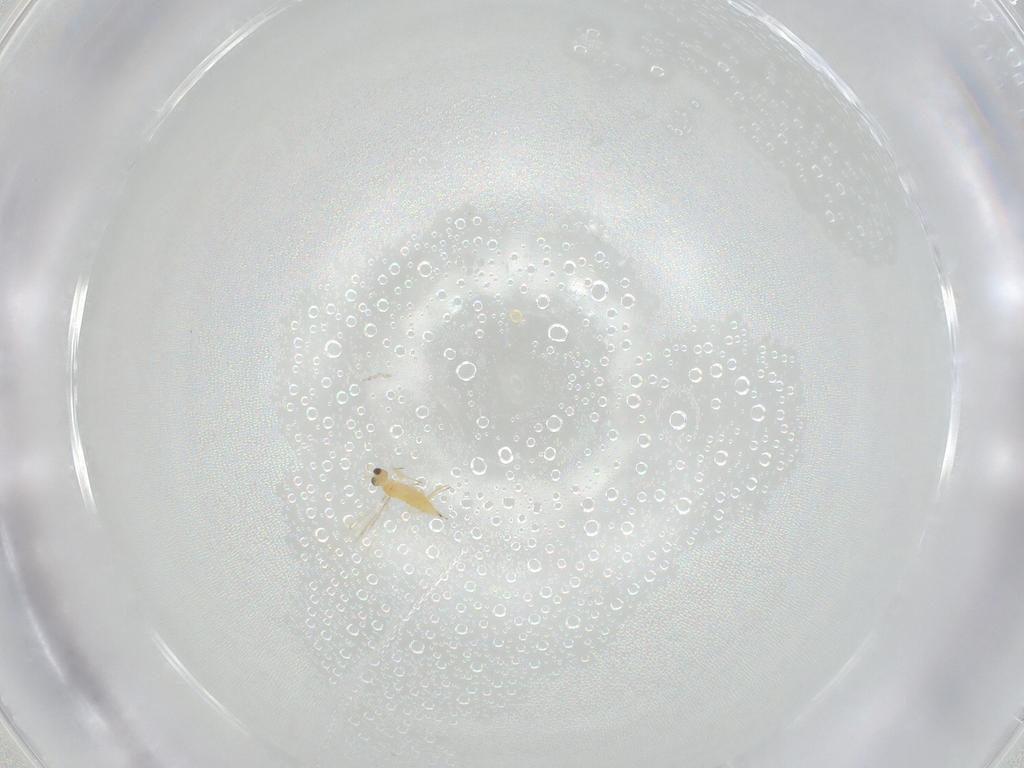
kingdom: Animalia
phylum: Arthropoda
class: Insecta
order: Hymenoptera
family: Mymaridae
